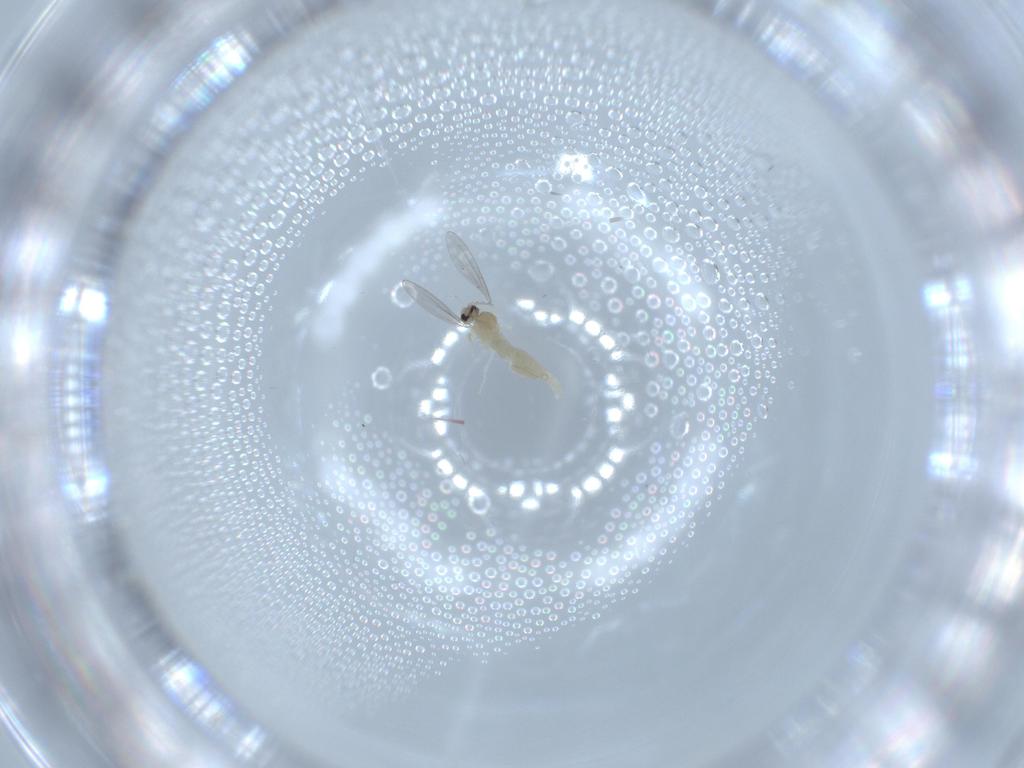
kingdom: Animalia
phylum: Arthropoda
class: Insecta
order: Diptera
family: Cecidomyiidae
